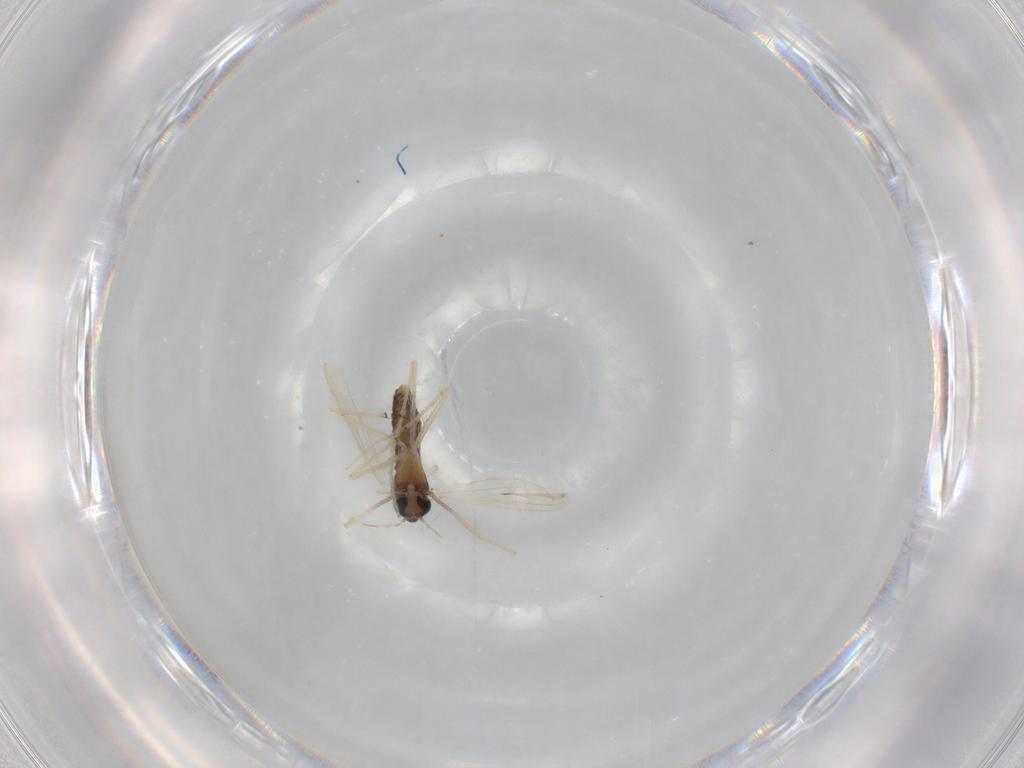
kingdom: Animalia
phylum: Arthropoda
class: Insecta
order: Diptera
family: Chironomidae
